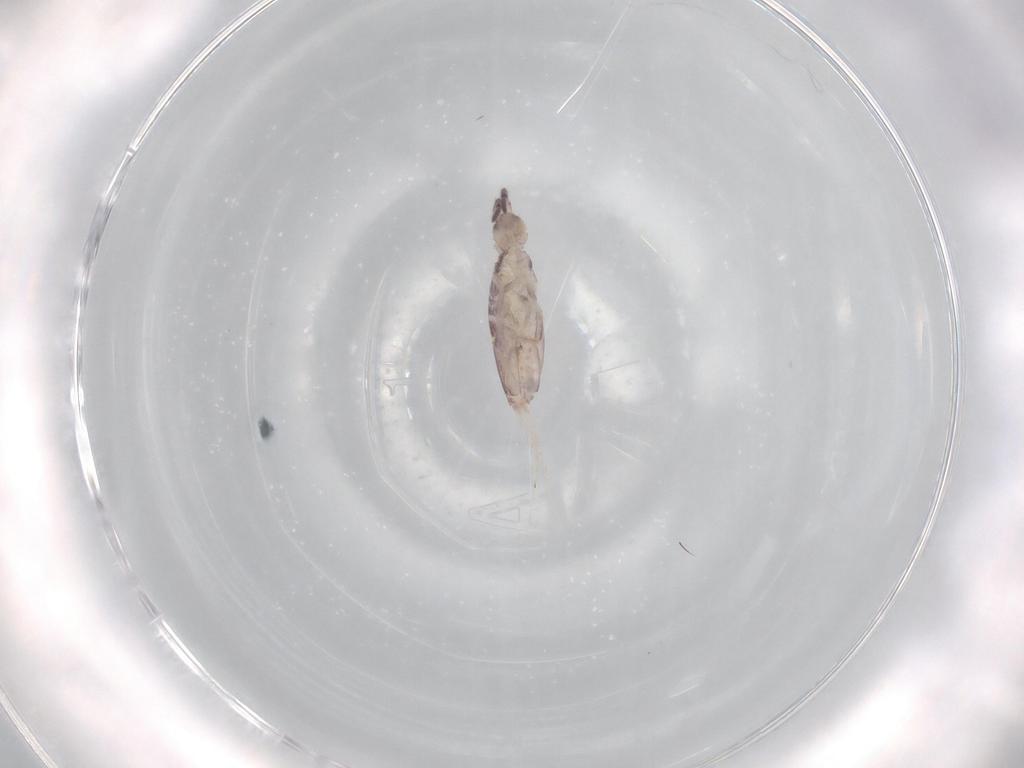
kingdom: Animalia
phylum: Arthropoda
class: Collembola
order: Poduromorpha
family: Hypogastruridae
